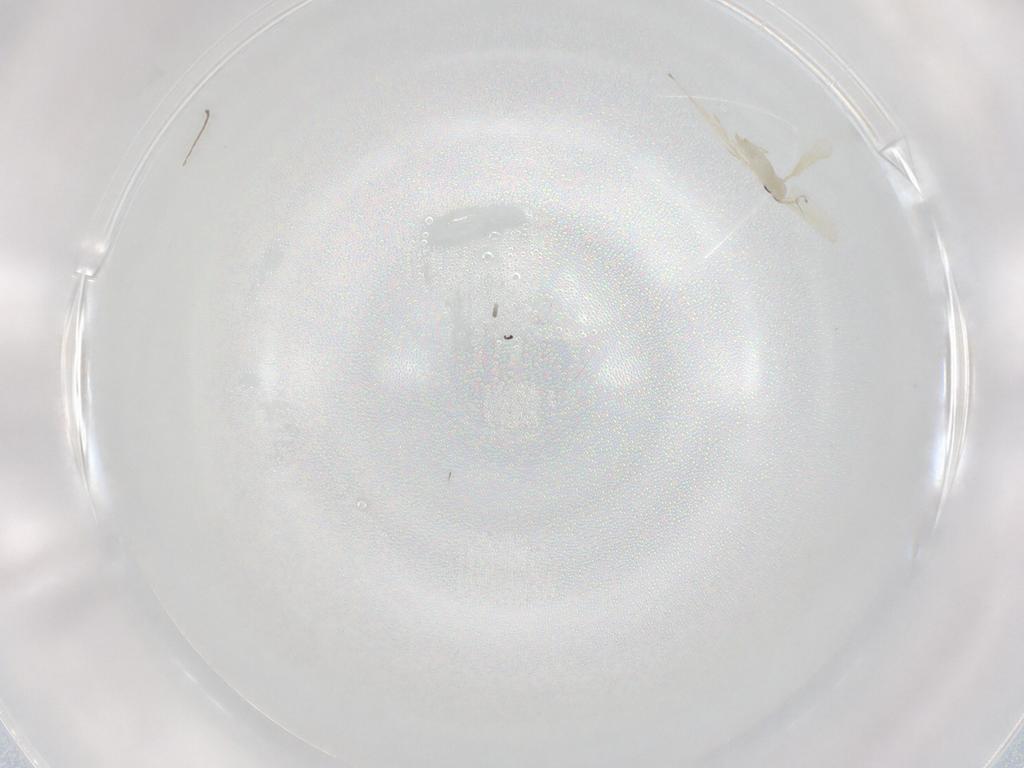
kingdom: Animalia
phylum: Arthropoda
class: Insecta
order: Diptera
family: Cecidomyiidae
